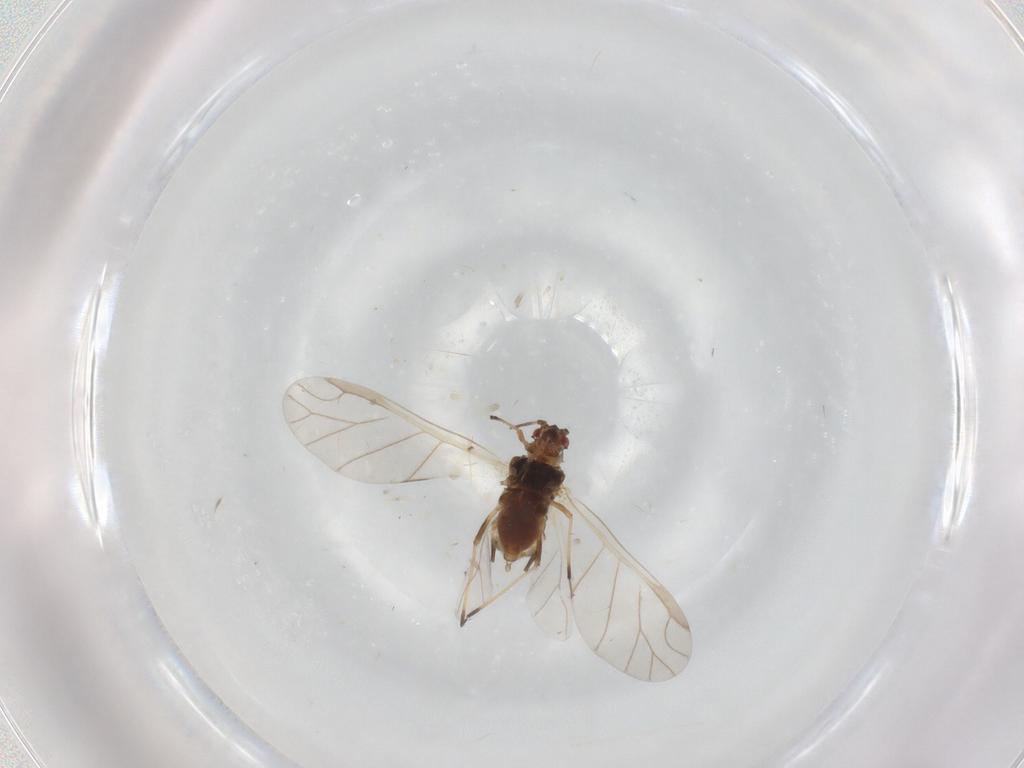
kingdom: Animalia
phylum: Arthropoda
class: Insecta
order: Hemiptera
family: Aphididae
